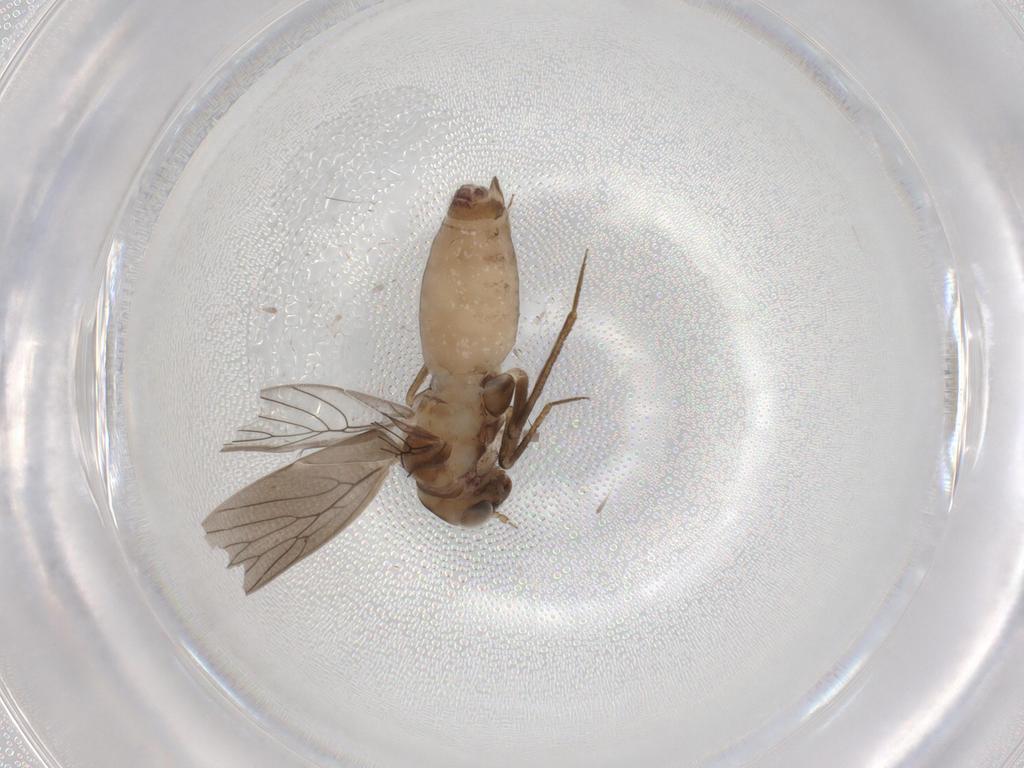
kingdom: Animalia
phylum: Arthropoda
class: Insecta
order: Psocodea
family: Lepidopsocidae
